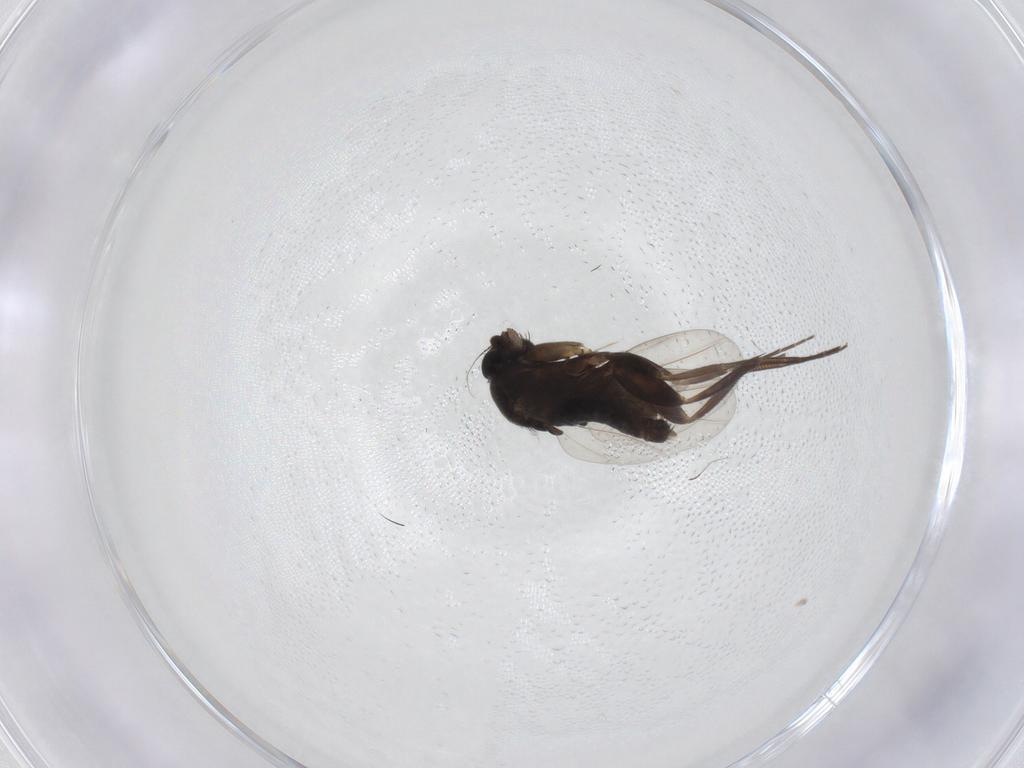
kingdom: Animalia
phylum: Arthropoda
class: Insecta
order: Diptera
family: Phoridae
